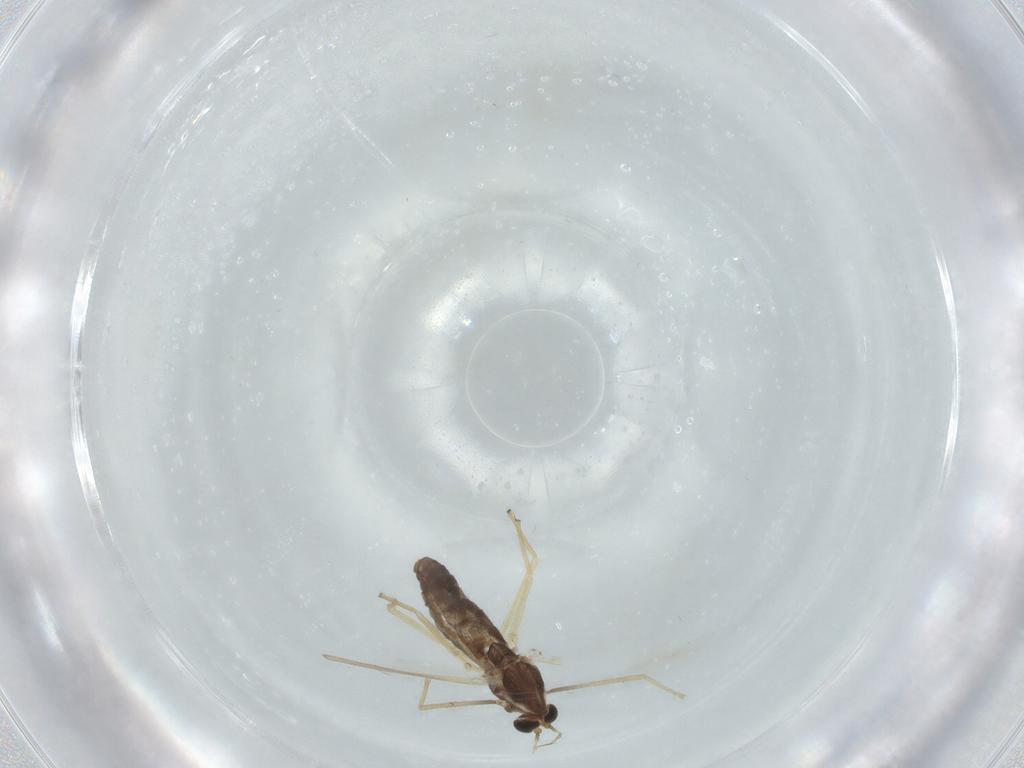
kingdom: Animalia
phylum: Arthropoda
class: Insecta
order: Diptera
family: Chironomidae
